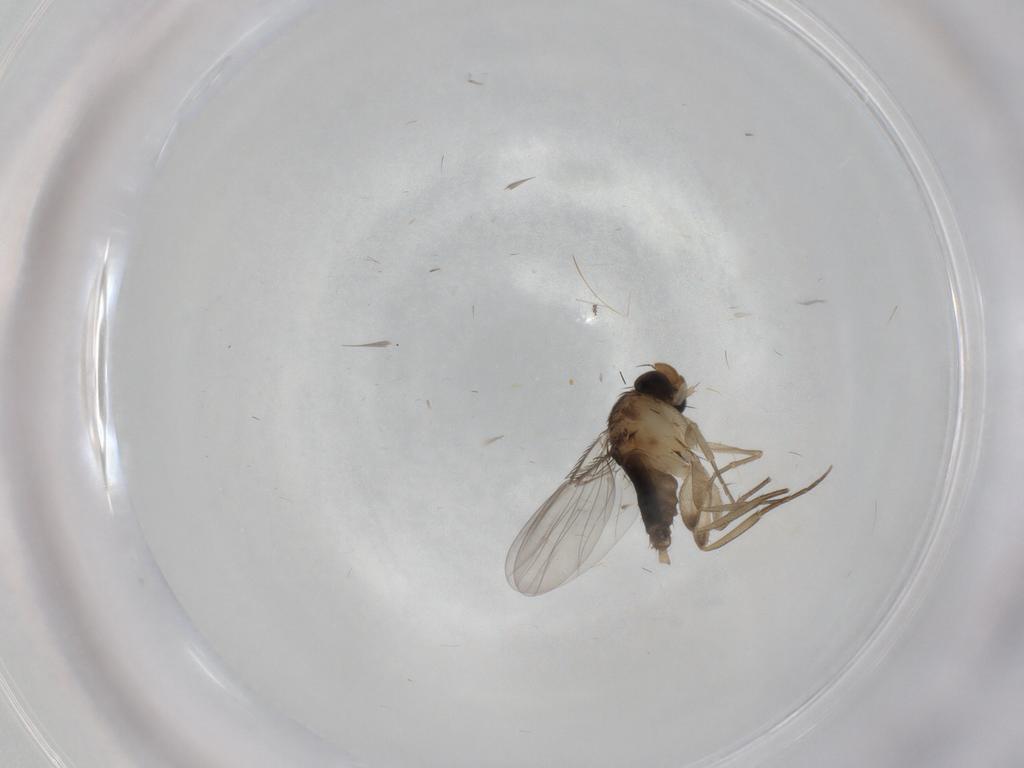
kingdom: Animalia
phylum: Arthropoda
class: Insecta
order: Diptera
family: Phoridae
